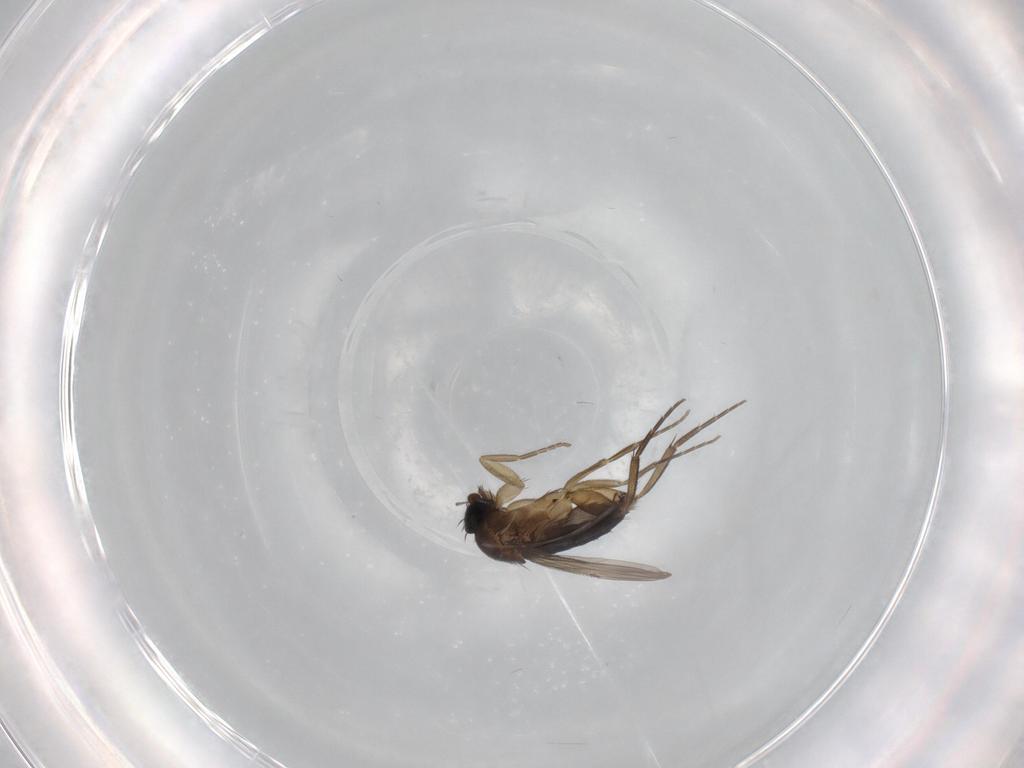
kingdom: Animalia
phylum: Arthropoda
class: Insecta
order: Diptera
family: Phoridae
